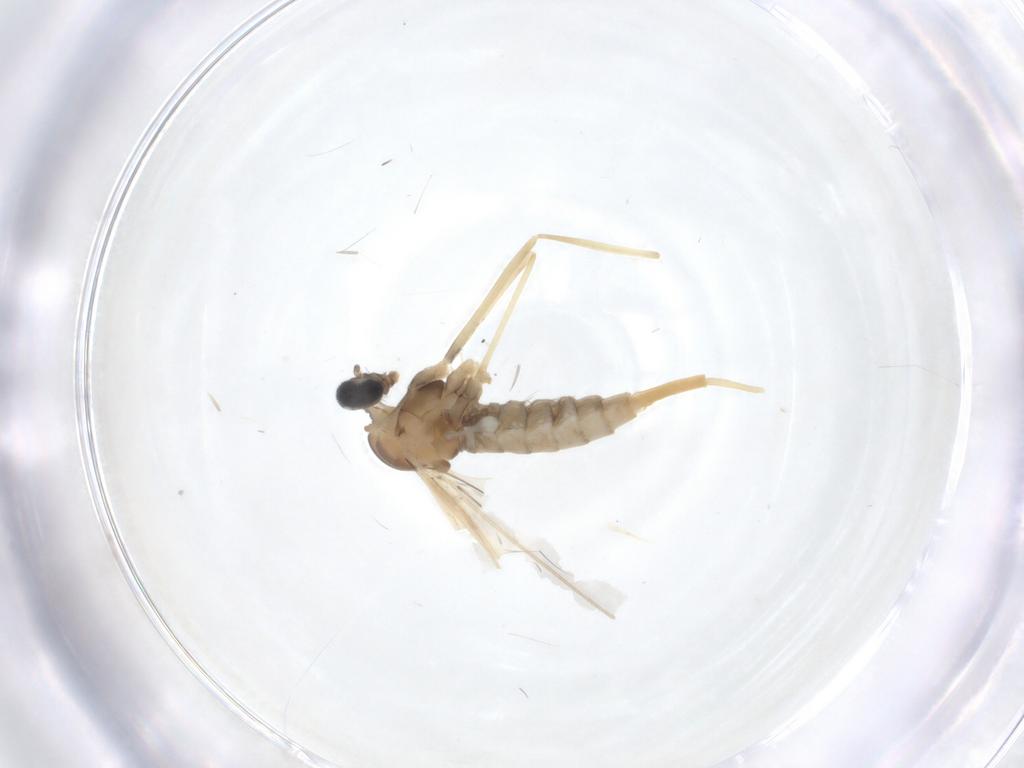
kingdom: Animalia
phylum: Arthropoda
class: Insecta
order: Diptera
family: Cecidomyiidae
